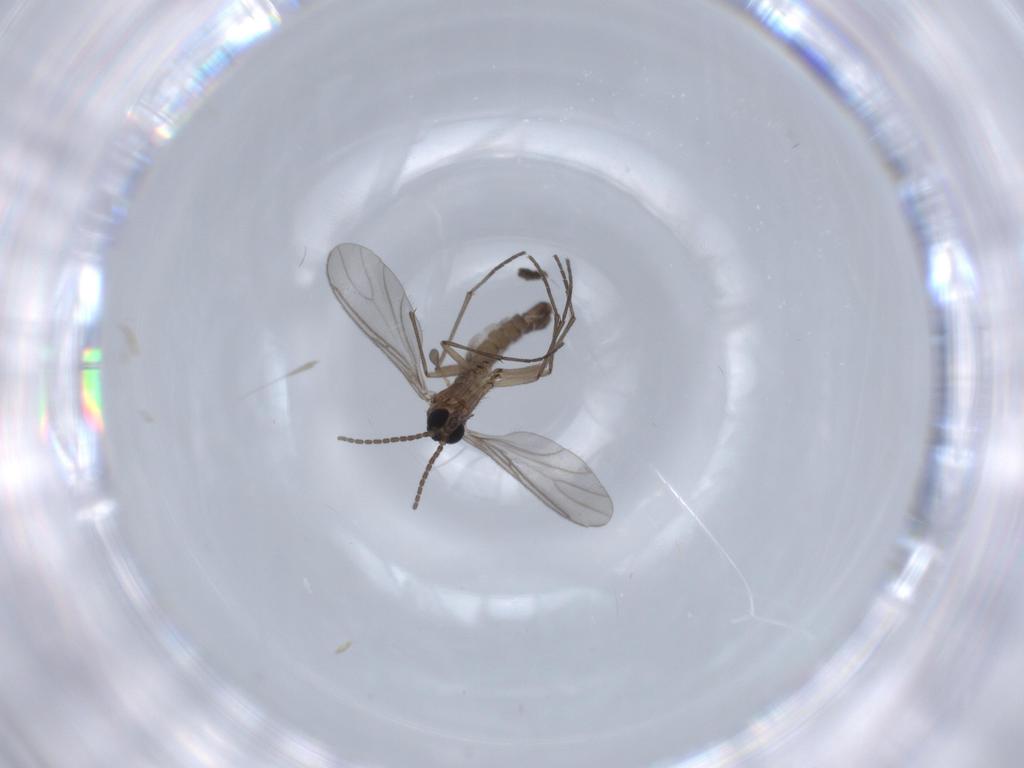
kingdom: Animalia
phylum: Arthropoda
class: Insecta
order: Diptera
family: Sciaridae
